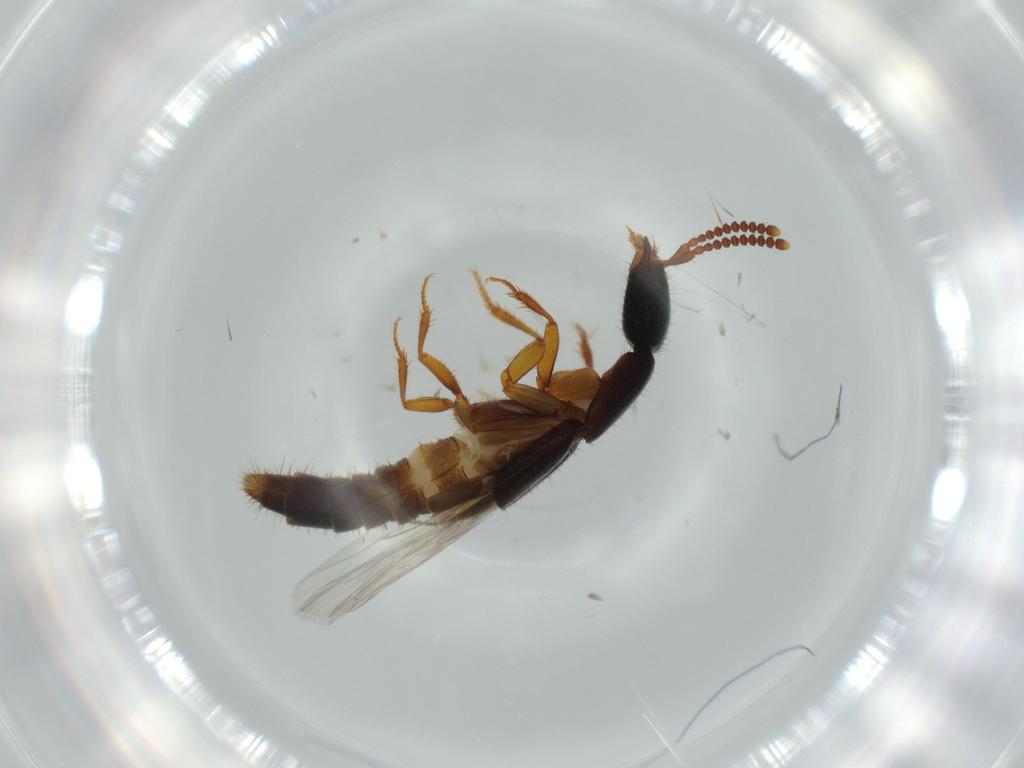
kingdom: Animalia
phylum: Arthropoda
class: Insecta
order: Coleoptera
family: Staphylinidae
